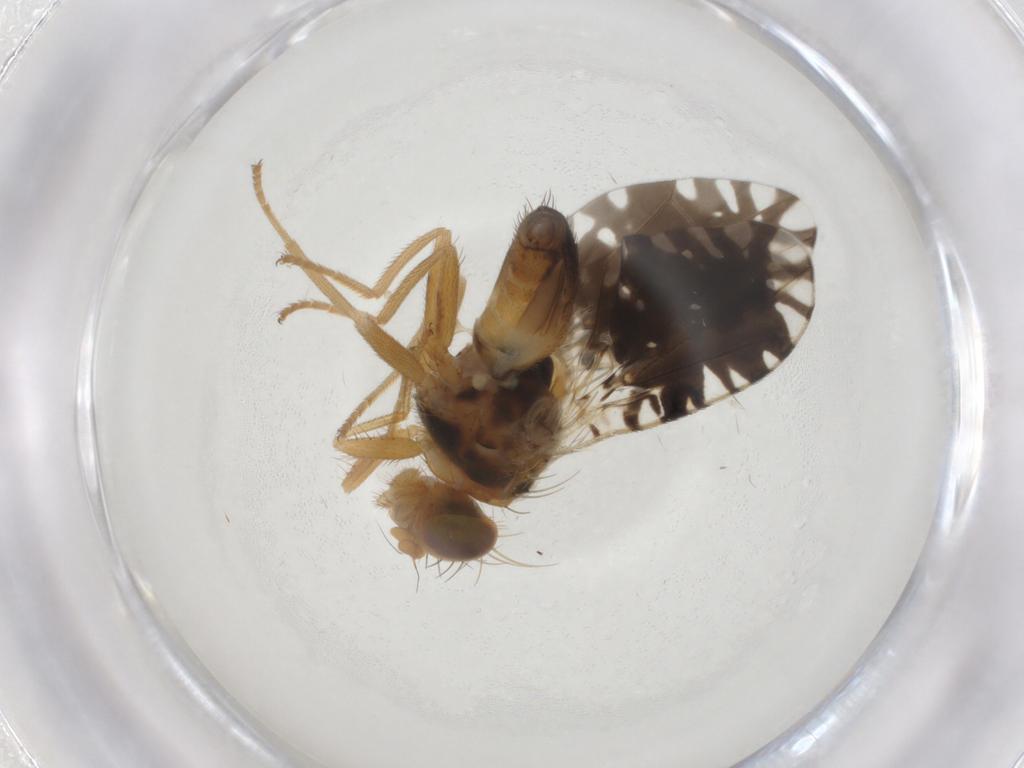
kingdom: Animalia
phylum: Arthropoda
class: Insecta
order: Diptera
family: Tephritidae
